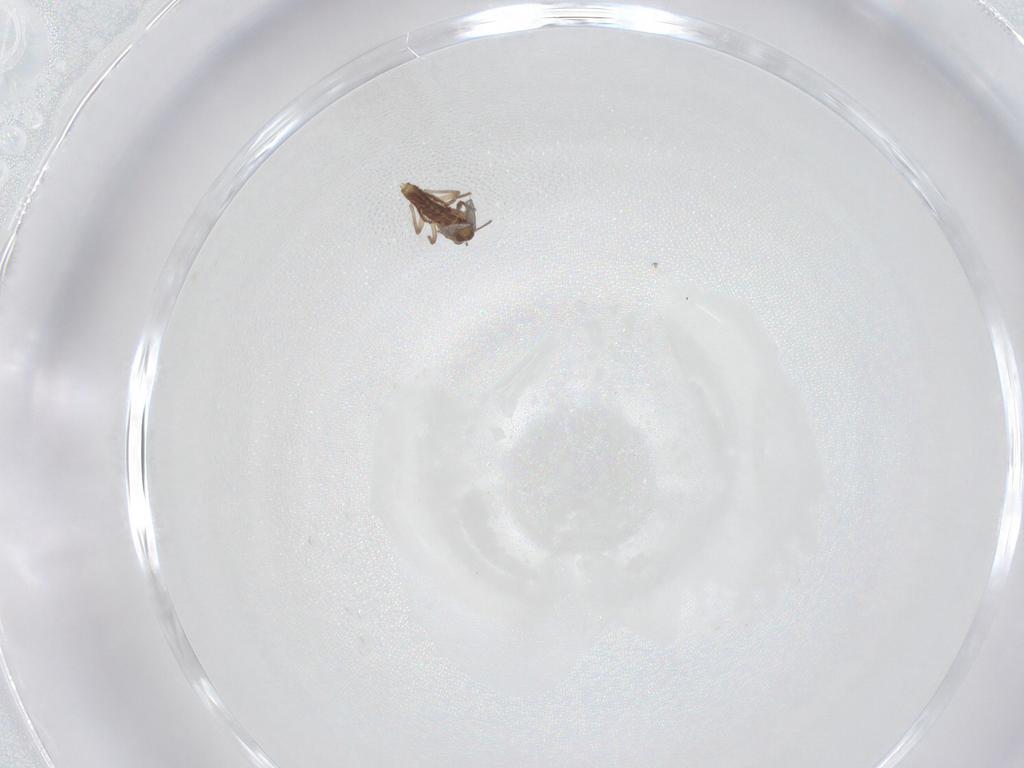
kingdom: Animalia
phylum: Arthropoda
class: Insecta
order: Diptera
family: Chironomidae
